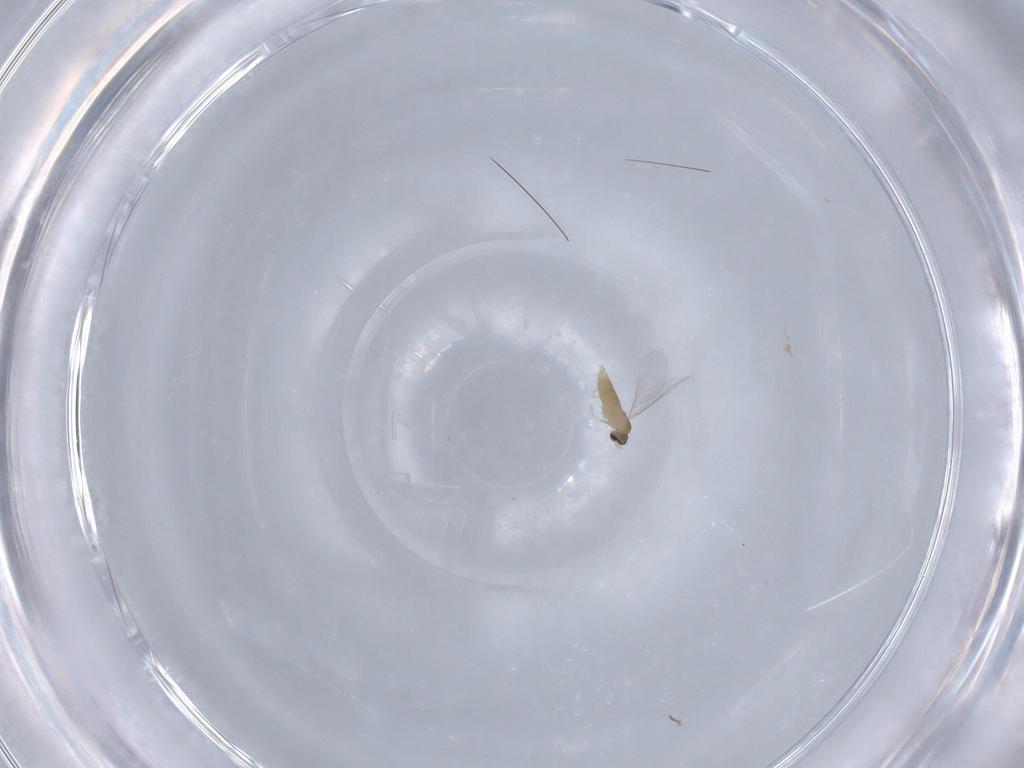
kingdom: Animalia
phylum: Arthropoda
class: Insecta
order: Diptera
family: Cecidomyiidae
